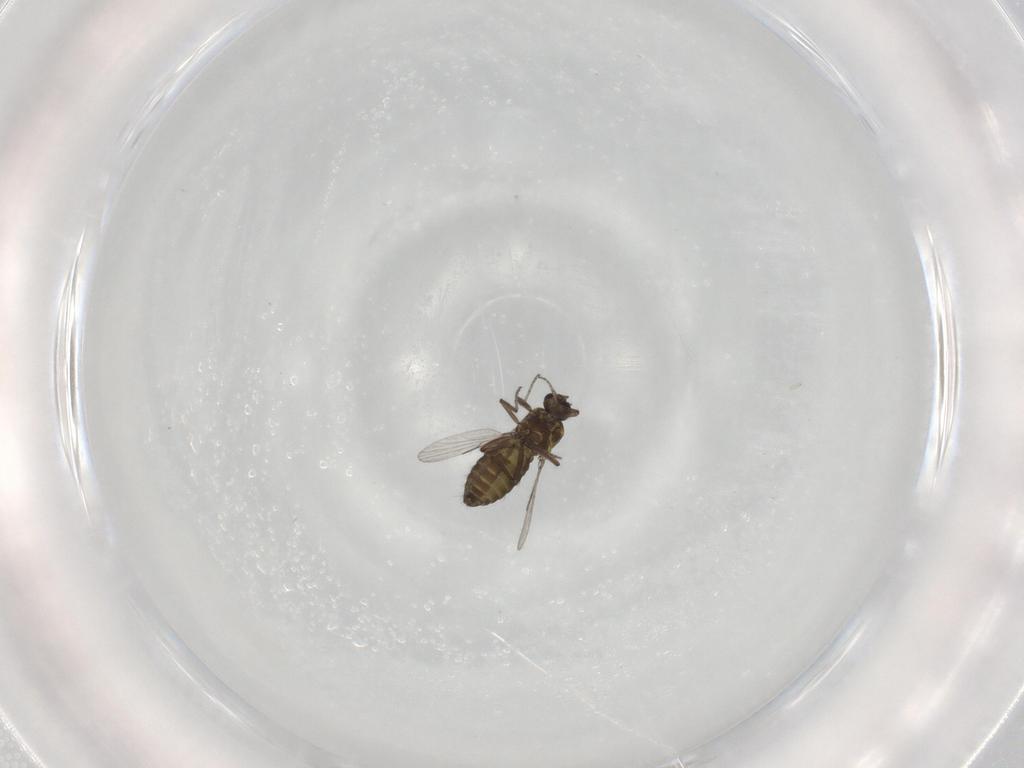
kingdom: Animalia
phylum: Arthropoda
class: Insecta
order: Diptera
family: Ceratopogonidae
